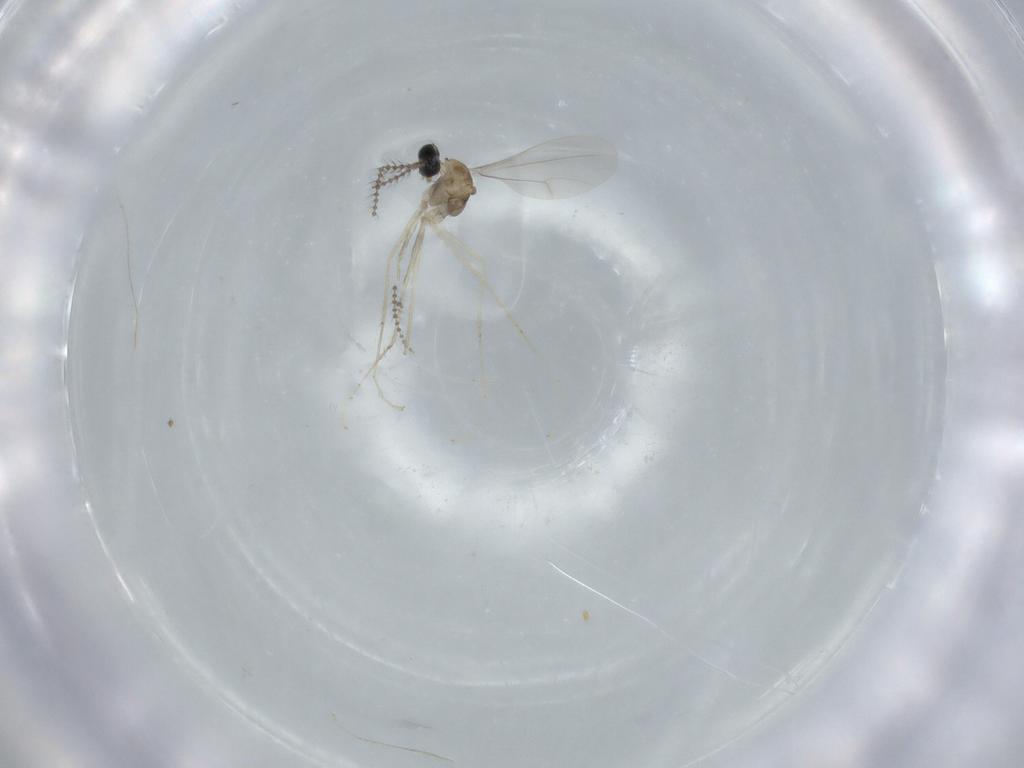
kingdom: Animalia
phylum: Arthropoda
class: Insecta
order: Diptera
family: Cecidomyiidae
